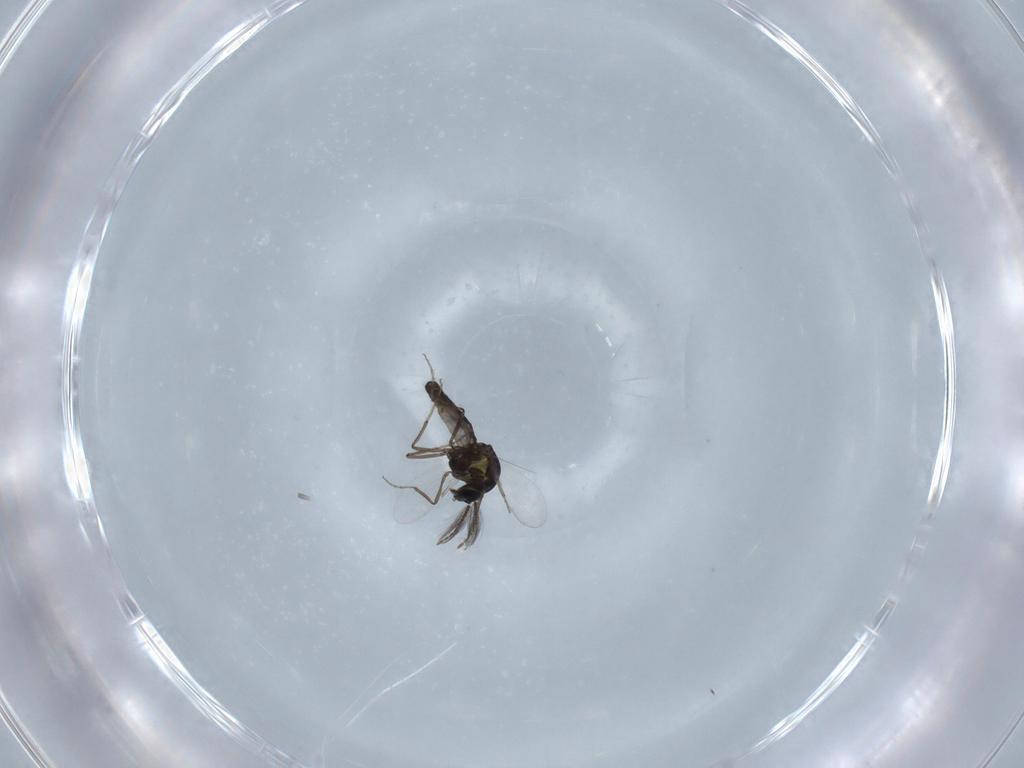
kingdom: Animalia
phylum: Arthropoda
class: Insecta
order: Diptera
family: Ceratopogonidae
